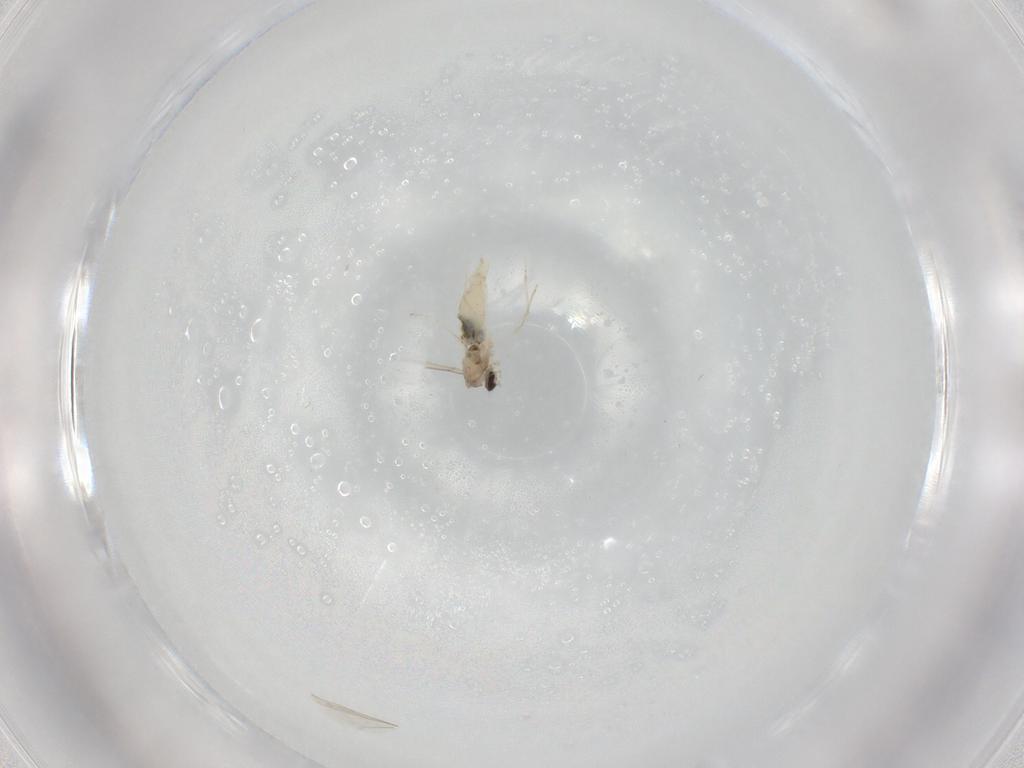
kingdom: Animalia
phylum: Arthropoda
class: Insecta
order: Diptera
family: Cecidomyiidae
